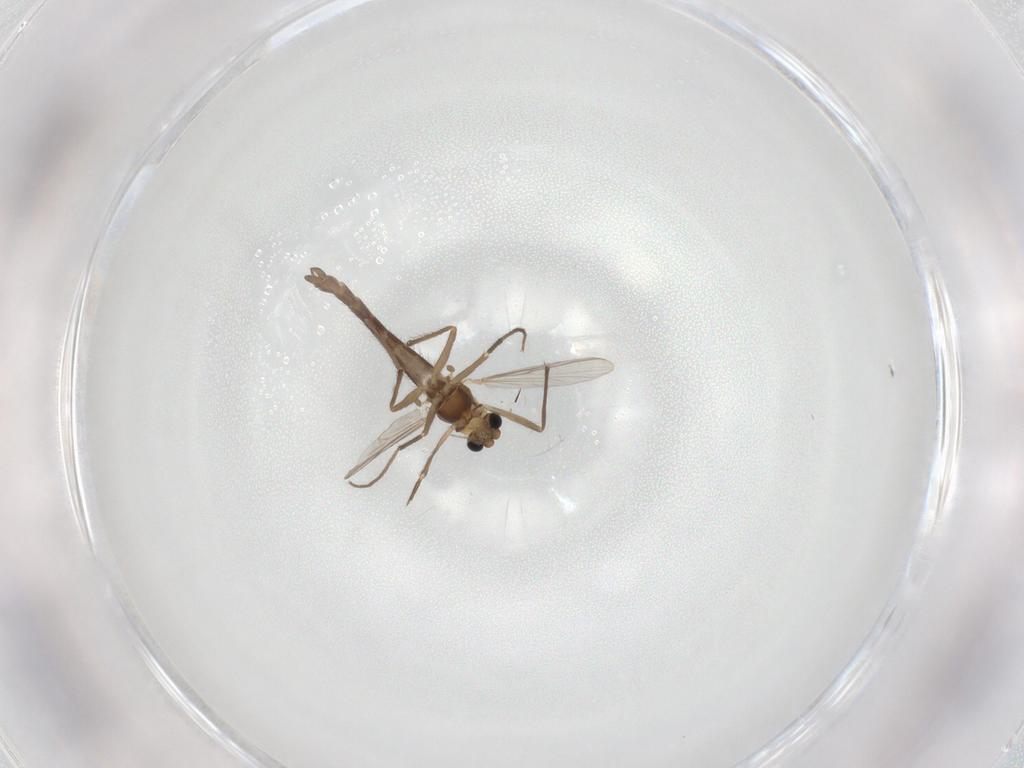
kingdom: Animalia
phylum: Arthropoda
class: Insecta
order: Diptera
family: Chironomidae
